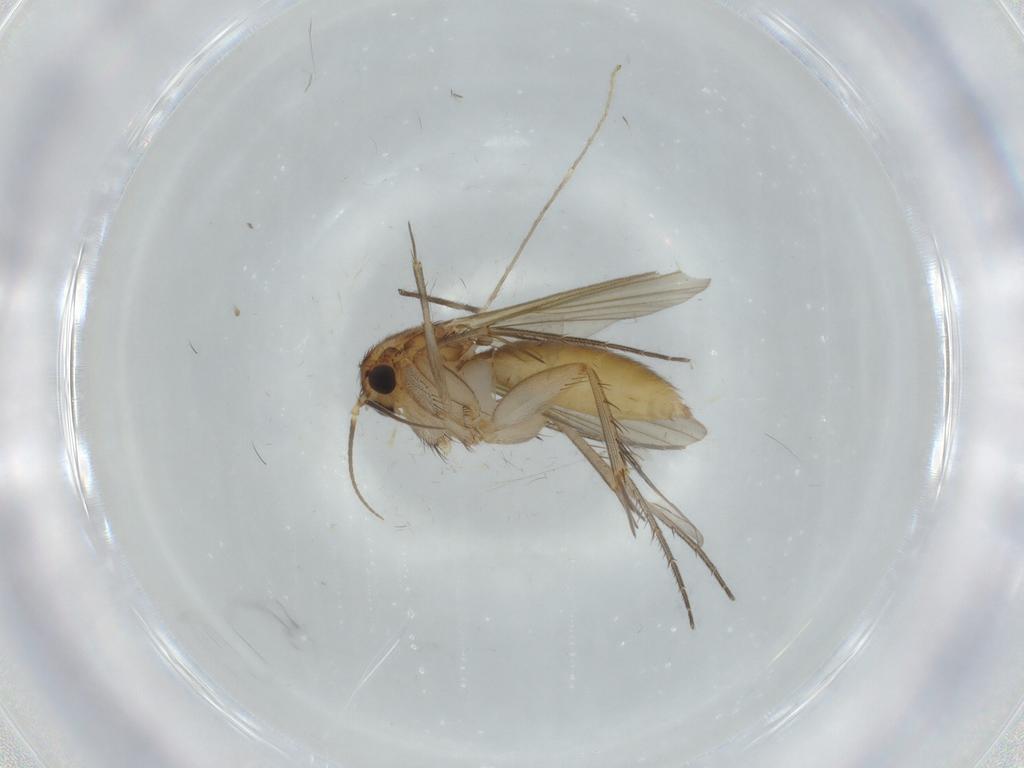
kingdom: Animalia
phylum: Arthropoda
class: Insecta
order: Diptera
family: Mycetophilidae
